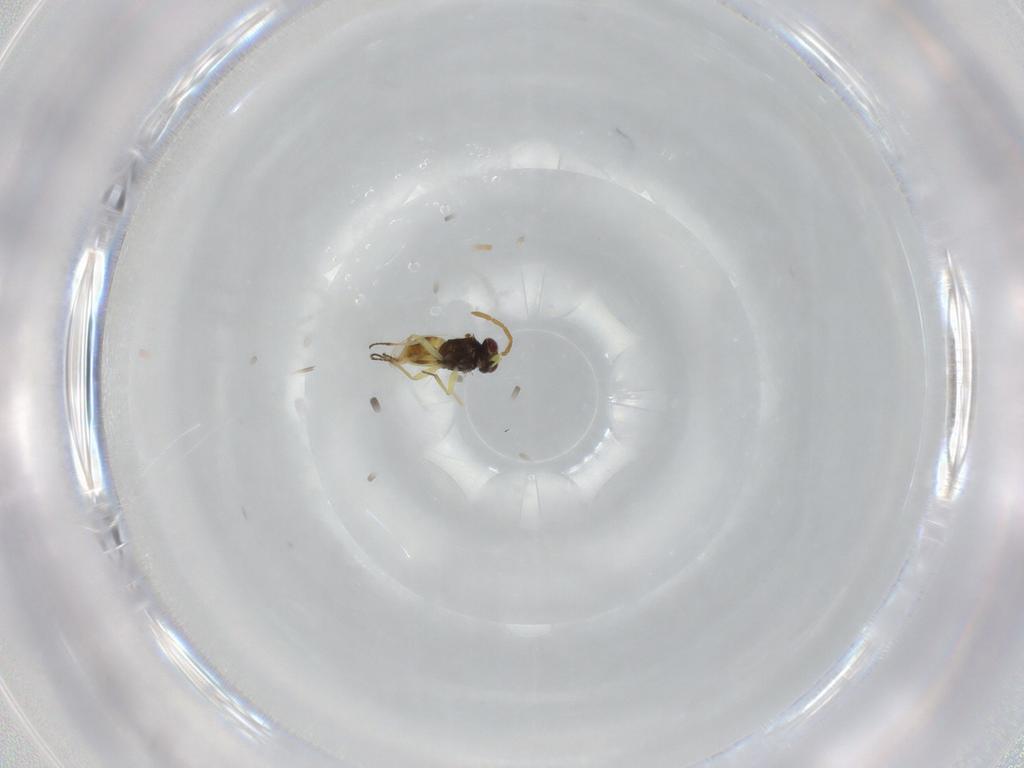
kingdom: Animalia
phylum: Arthropoda
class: Insecta
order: Hymenoptera
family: Aphelinidae
